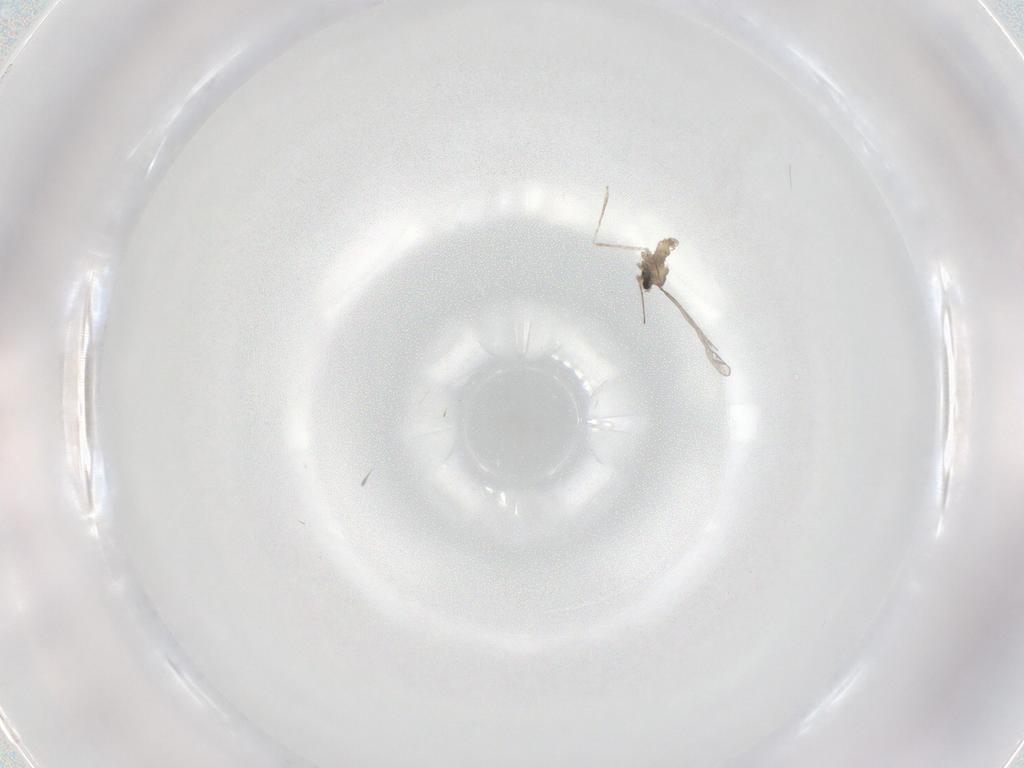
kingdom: Animalia
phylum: Arthropoda
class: Insecta
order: Diptera
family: Cecidomyiidae
